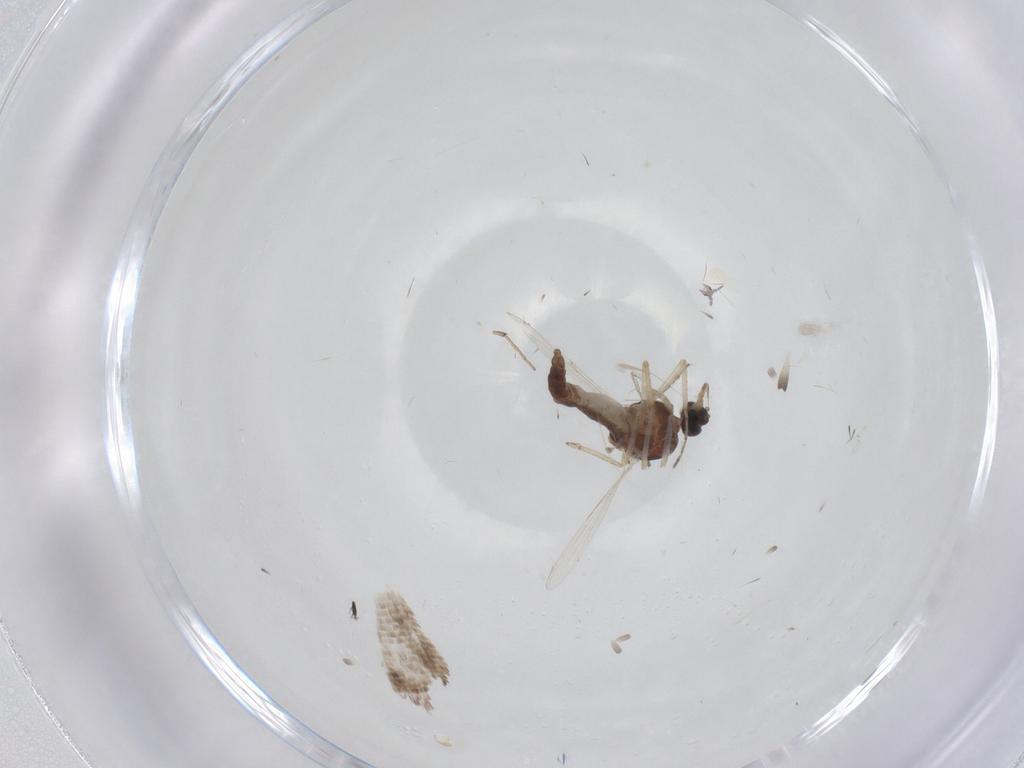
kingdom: Animalia
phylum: Arthropoda
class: Insecta
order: Diptera
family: Ceratopogonidae
